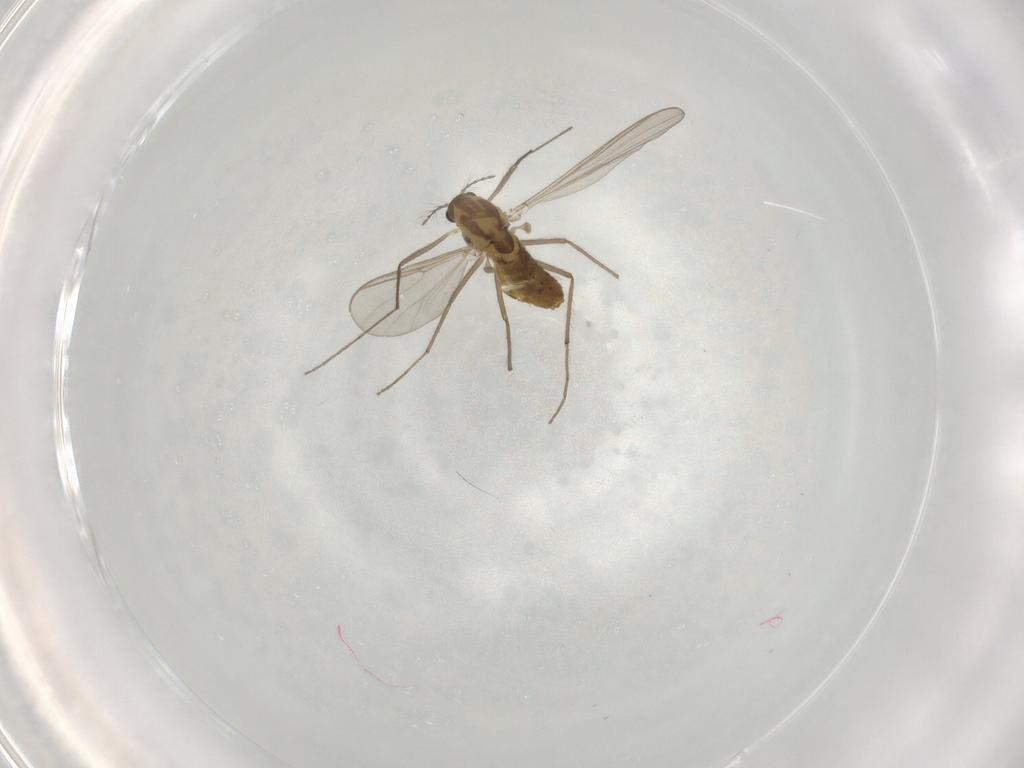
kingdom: Animalia
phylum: Arthropoda
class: Insecta
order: Diptera
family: Chironomidae
